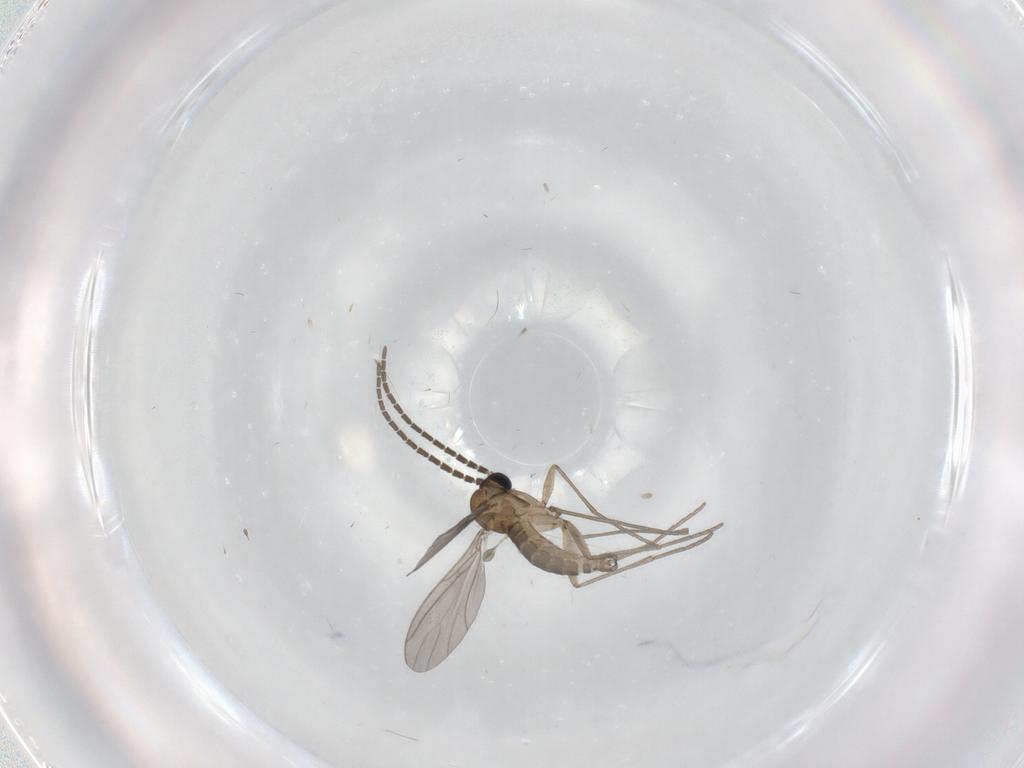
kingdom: Animalia
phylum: Arthropoda
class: Insecta
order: Diptera
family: Sciaridae
